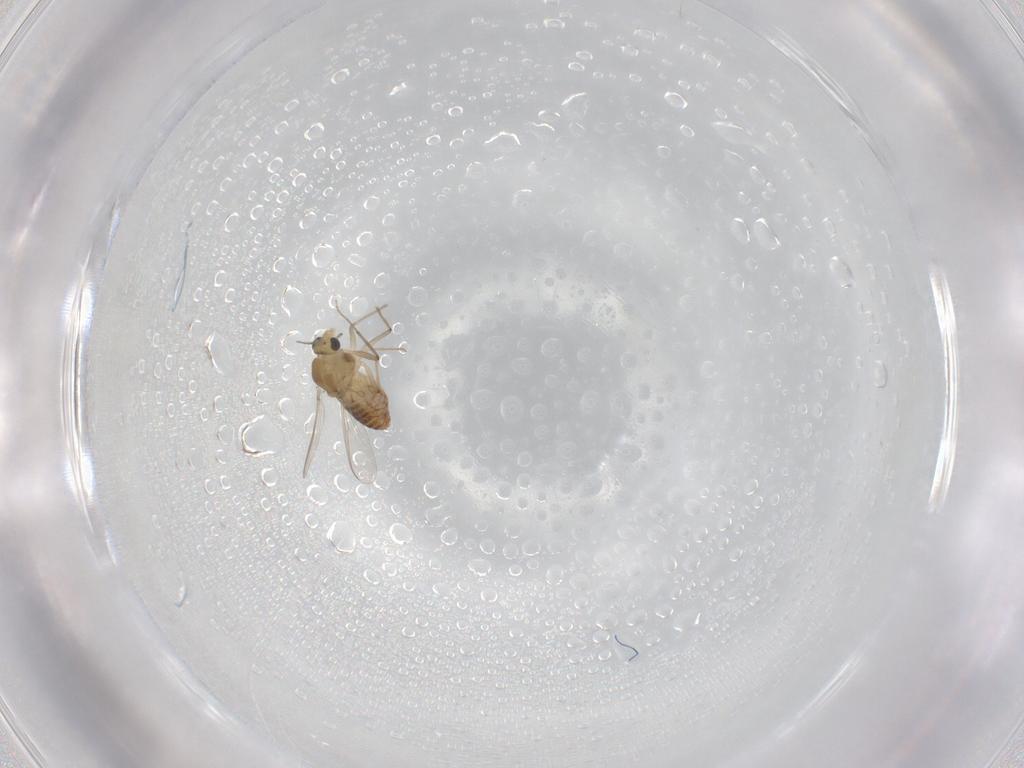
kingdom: Animalia
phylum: Arthropoda
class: Insecta
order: Diptera
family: Chironomidae
